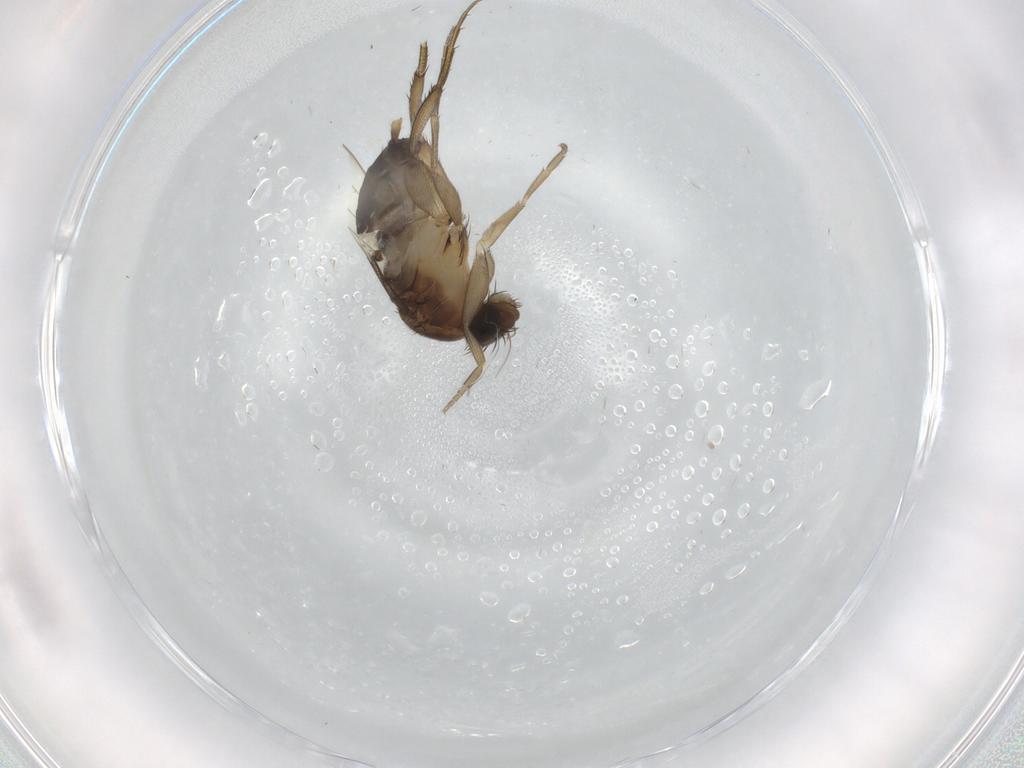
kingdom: Animalia
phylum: Arthropoda
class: Insecta
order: Diptera
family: Phoridae
